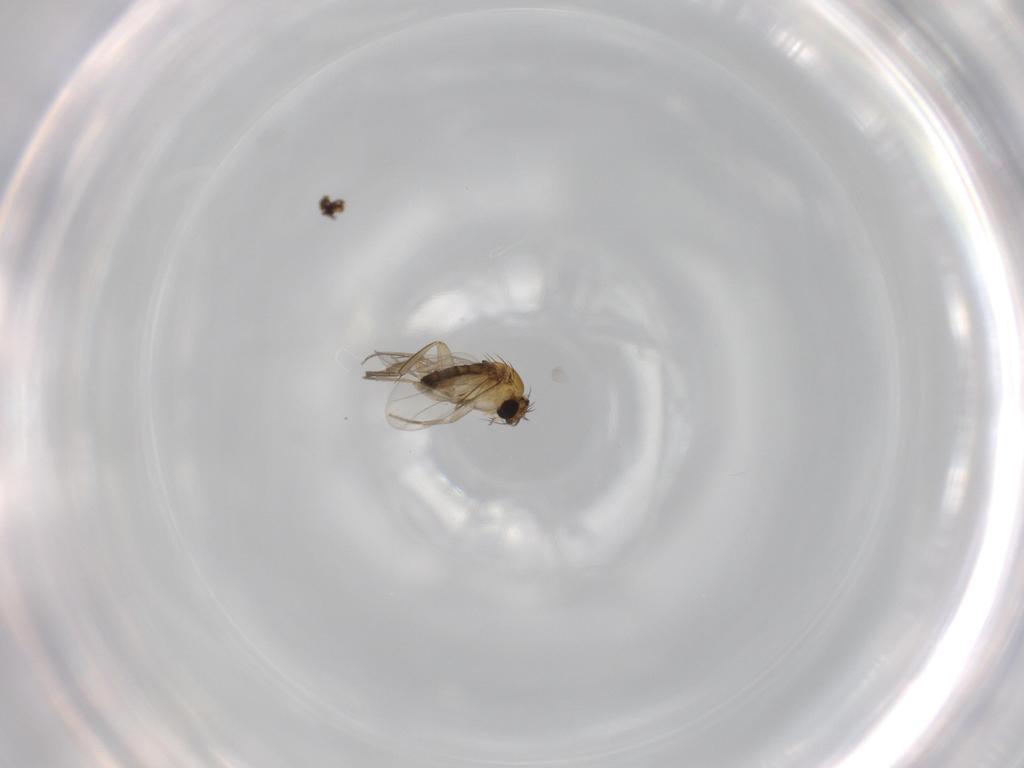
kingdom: Animalia
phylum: Arthropoda
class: Insecta
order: Diptera
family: Phoridae
